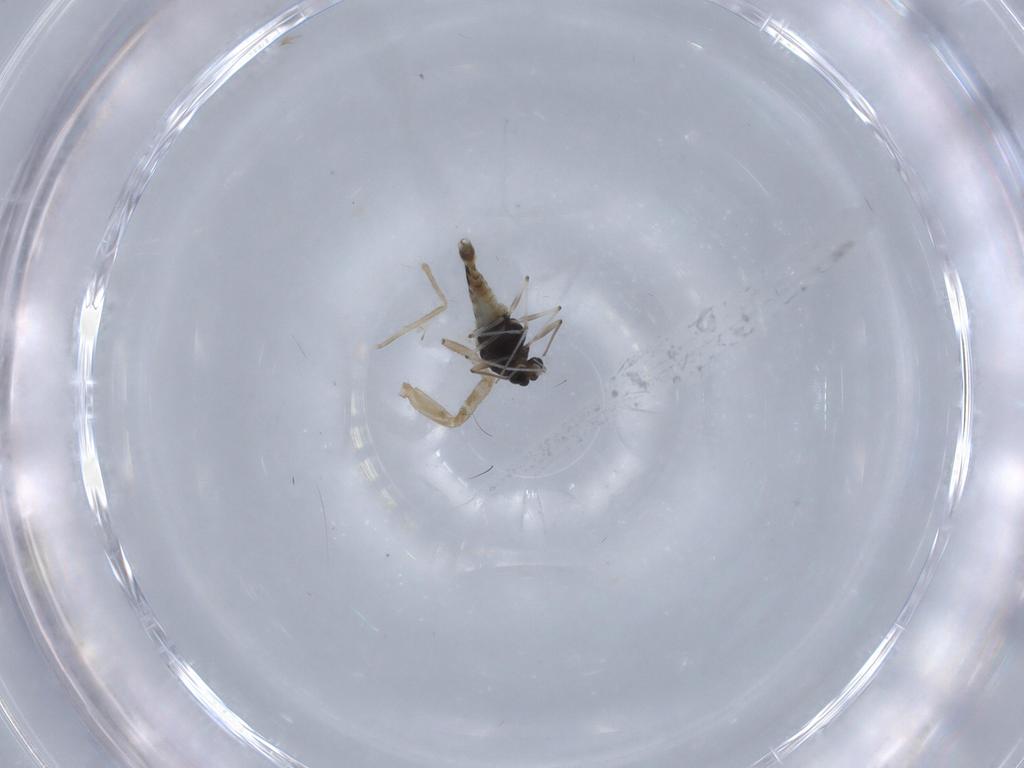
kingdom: Animalia
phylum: Arthropoda
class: Insecta
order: Diptera
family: Chironomidae
